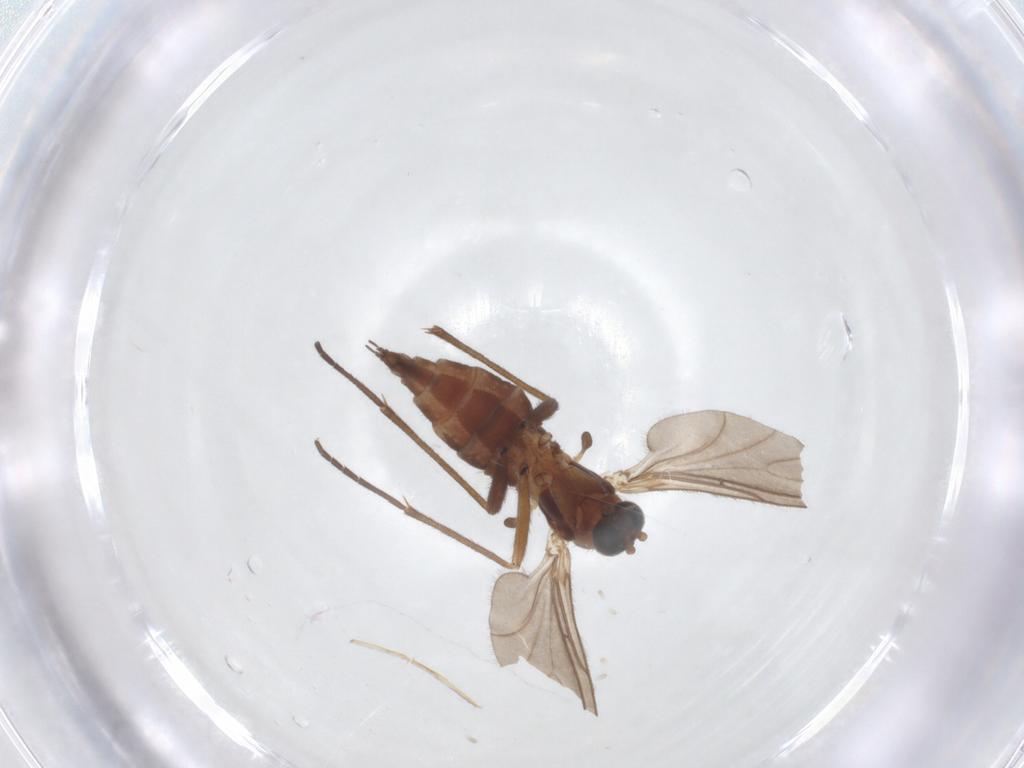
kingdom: Animalia
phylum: Arthropoda
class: Insecta
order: Diptera
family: Sciaridae
